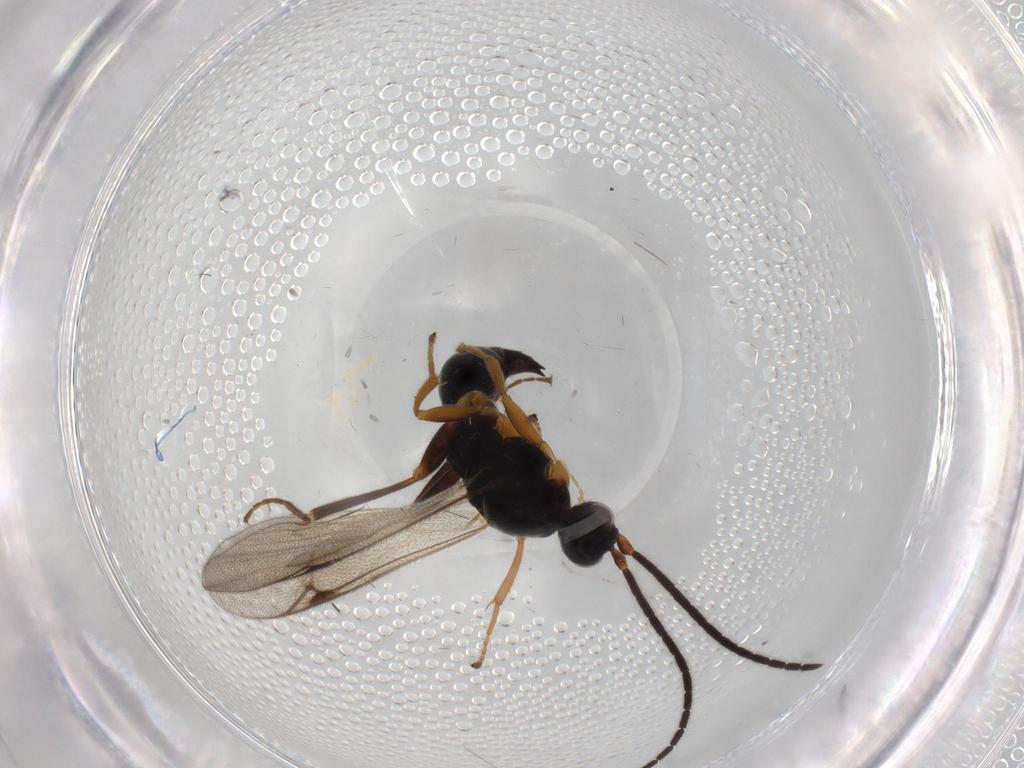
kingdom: Animalia
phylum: Arthropoda
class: Insecta
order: Hymenoptera
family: Proctotrupidae
